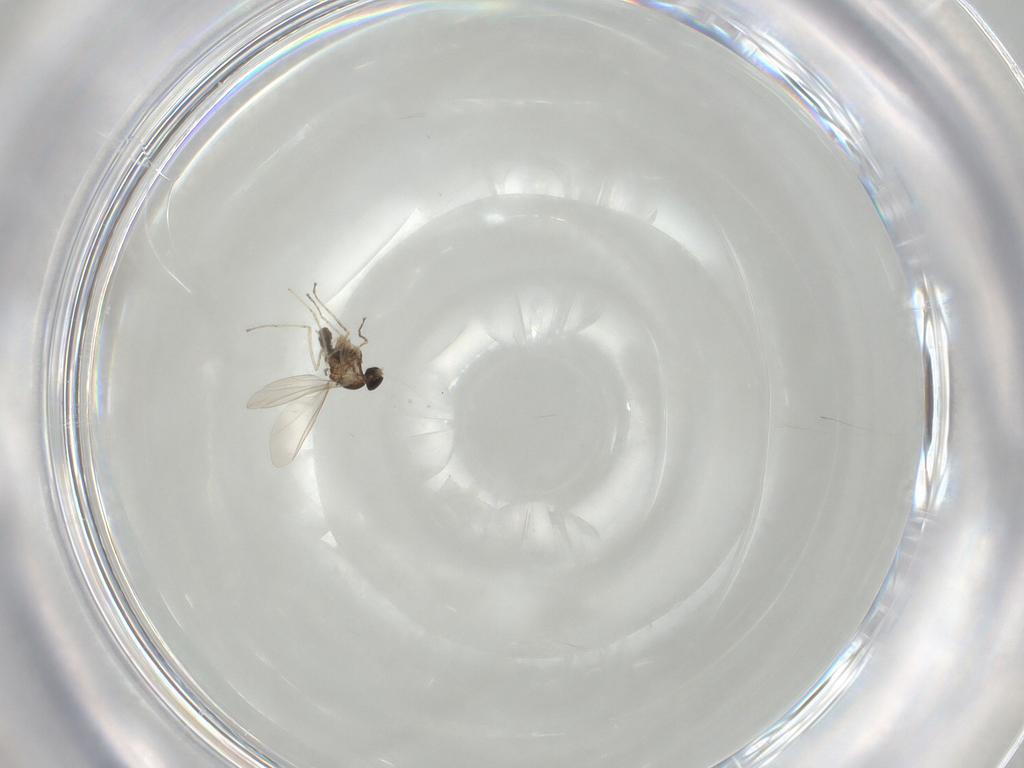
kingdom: Animalia
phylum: Arthropoda
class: Insecta
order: Diptera
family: Cecidomyiidae
